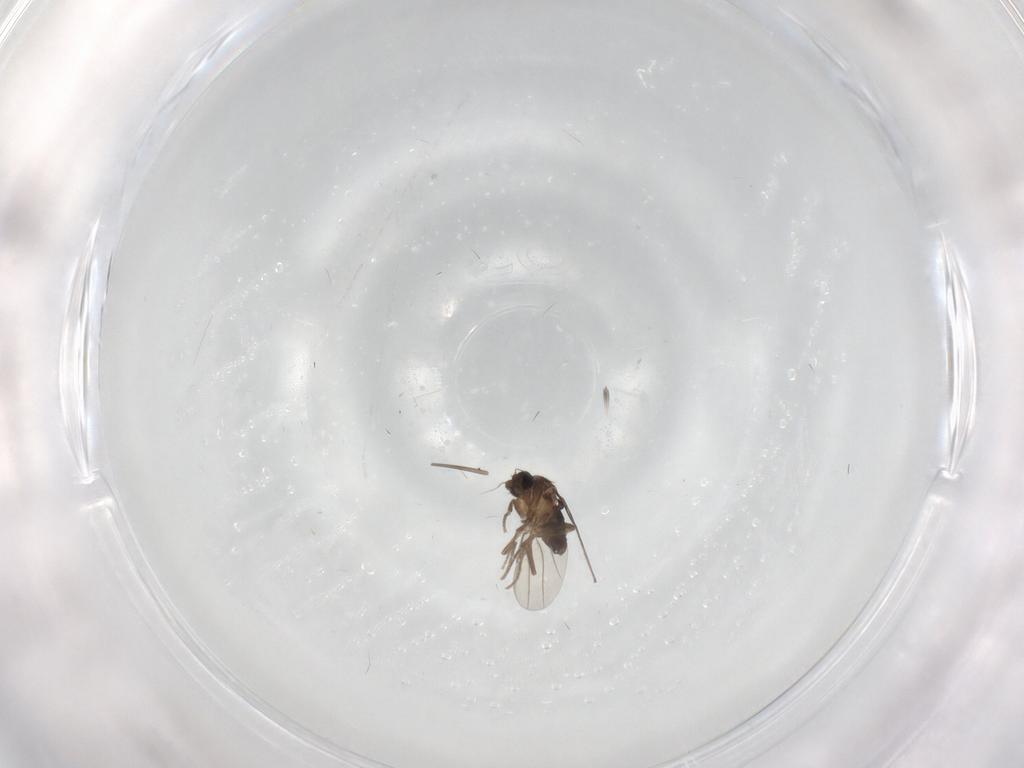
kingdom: Animalia
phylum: Arthropoda
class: Insecta
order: Diptera
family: Phoridae
